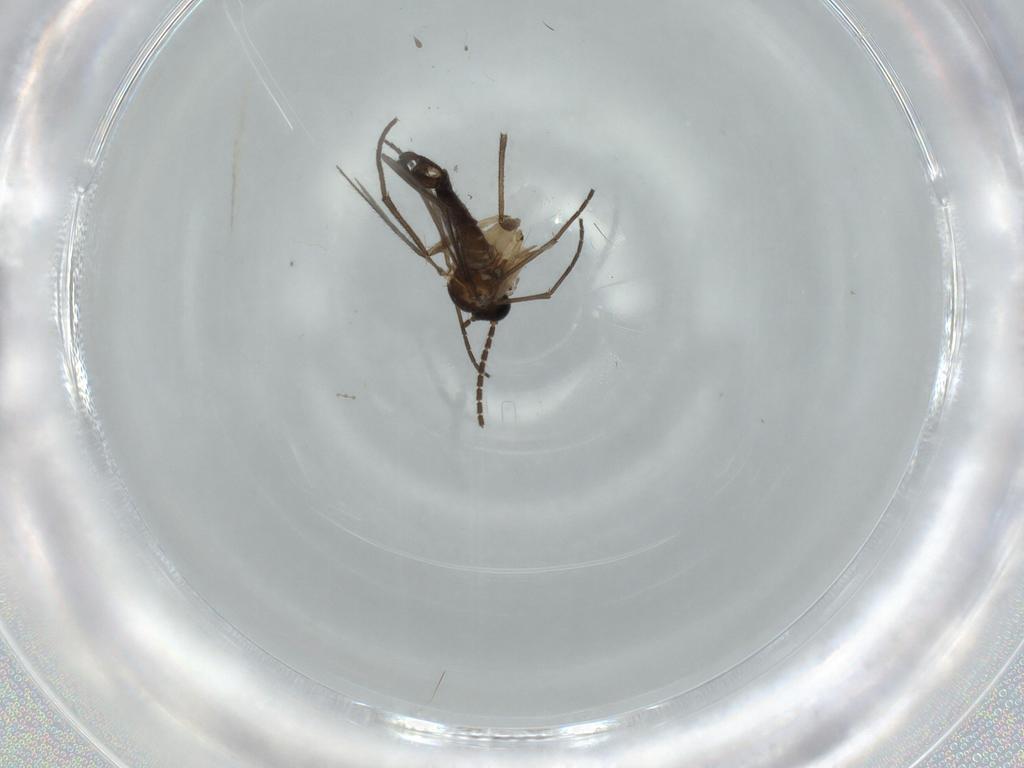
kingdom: Animalia
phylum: Arthropoda
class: Insecta
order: Diptera
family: Sciaridae
